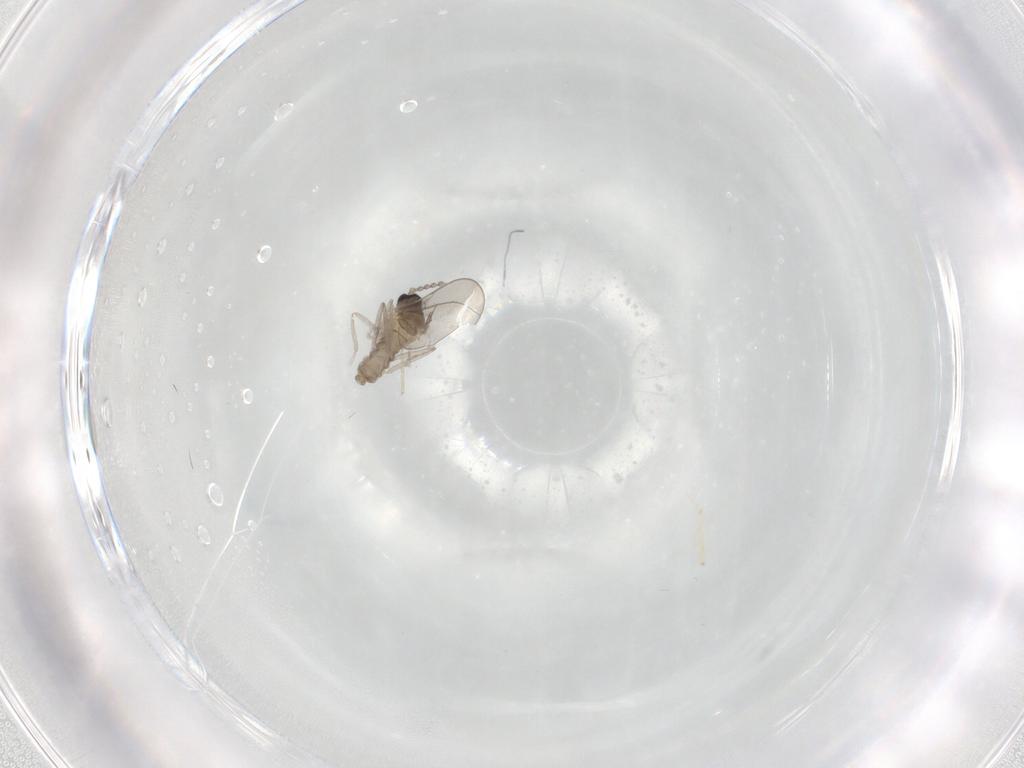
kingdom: Animalia
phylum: Arthropoda
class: Insecta
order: Diptera
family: Cecidomyiidae
